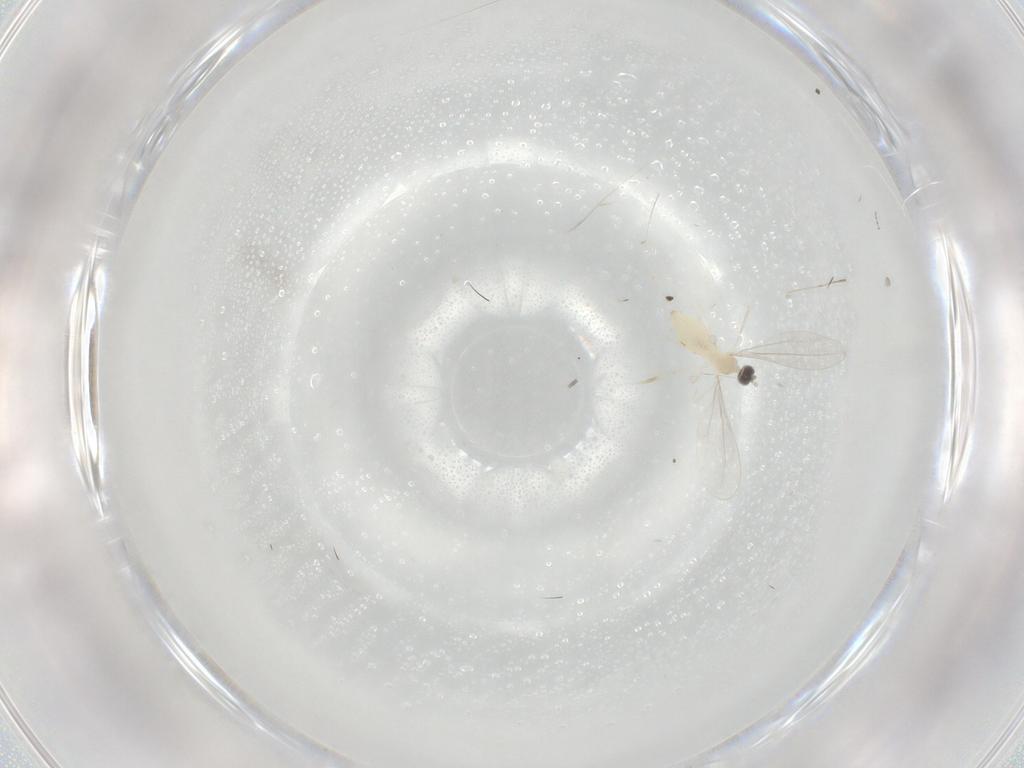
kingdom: Animalia
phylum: Arthropoda
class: Insecta
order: Diptera
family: Cecidomyiidae
